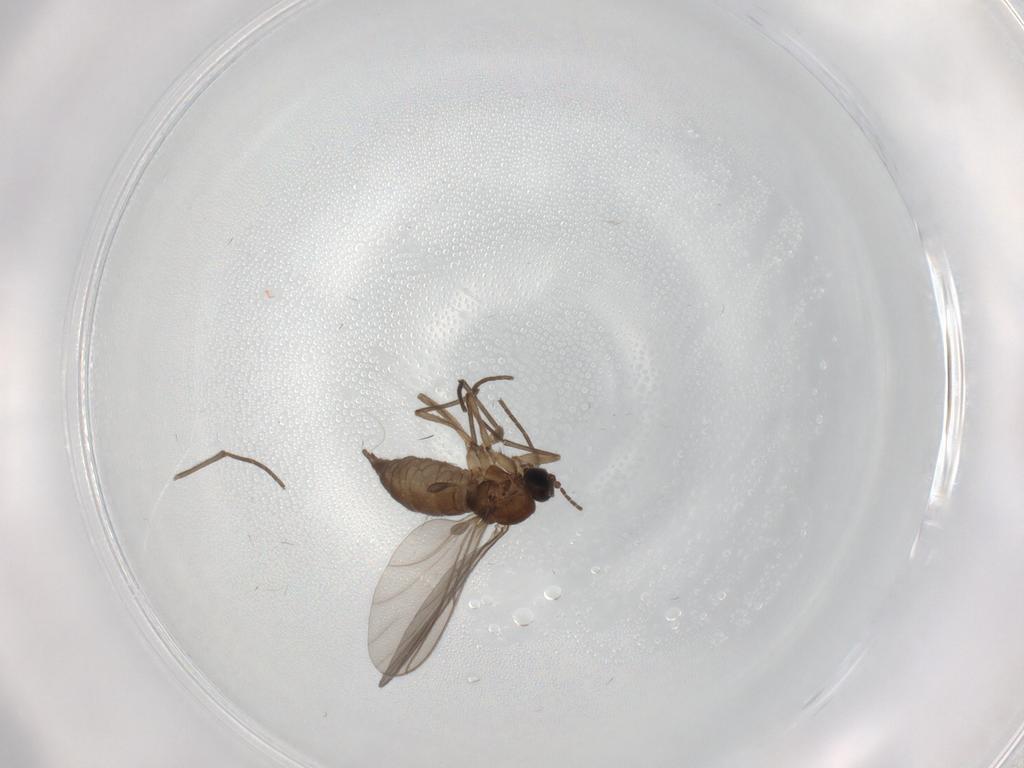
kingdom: Animalia
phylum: Arthropoda
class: Insecta
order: Diptera
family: Sciaridae
